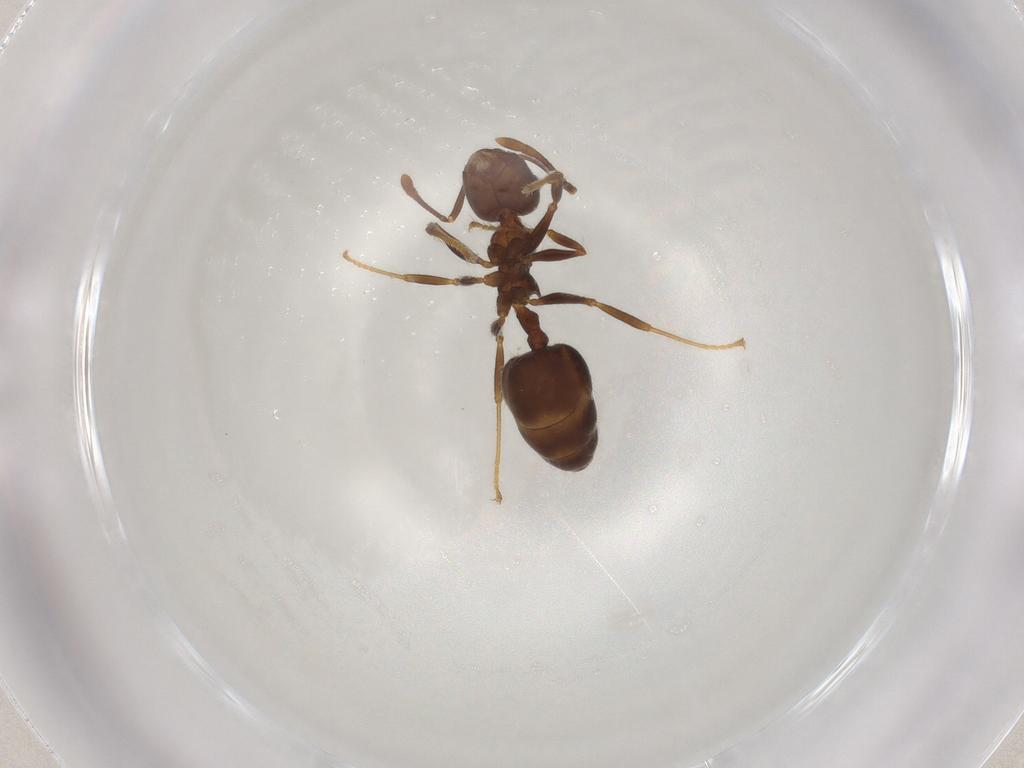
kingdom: Animalia
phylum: Arthropoda
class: Insecta
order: Hymenoptera
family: Formicidae
